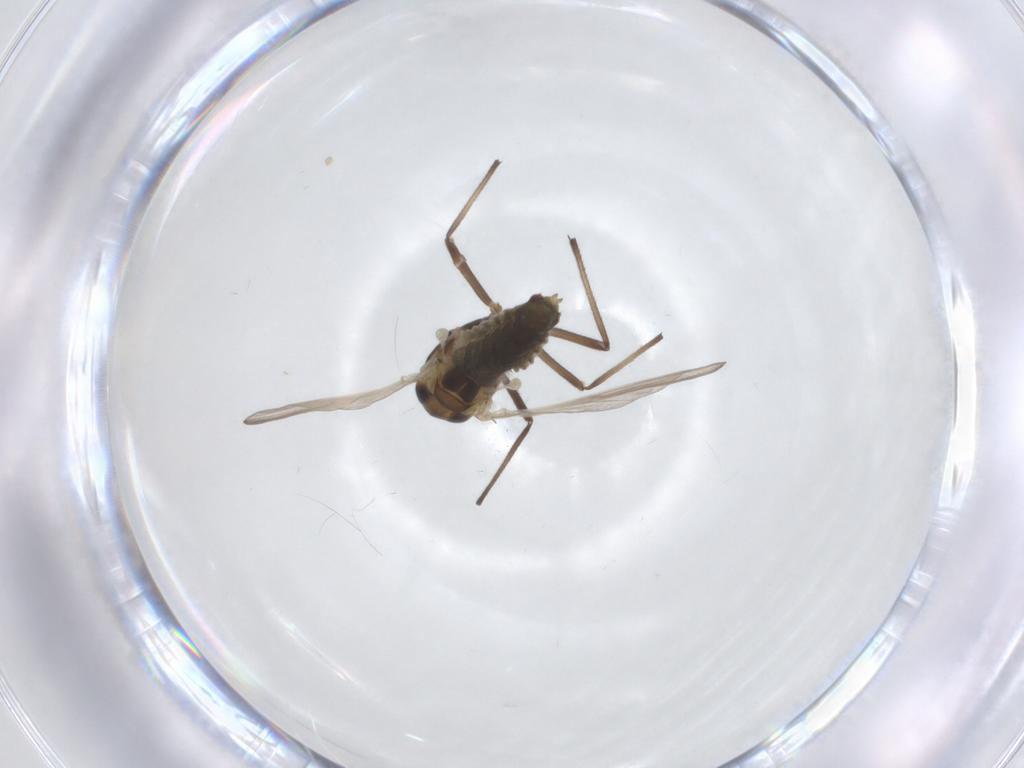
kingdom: Animalia
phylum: Arthropoda
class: Insecta
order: Diptera
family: Chironomidae
